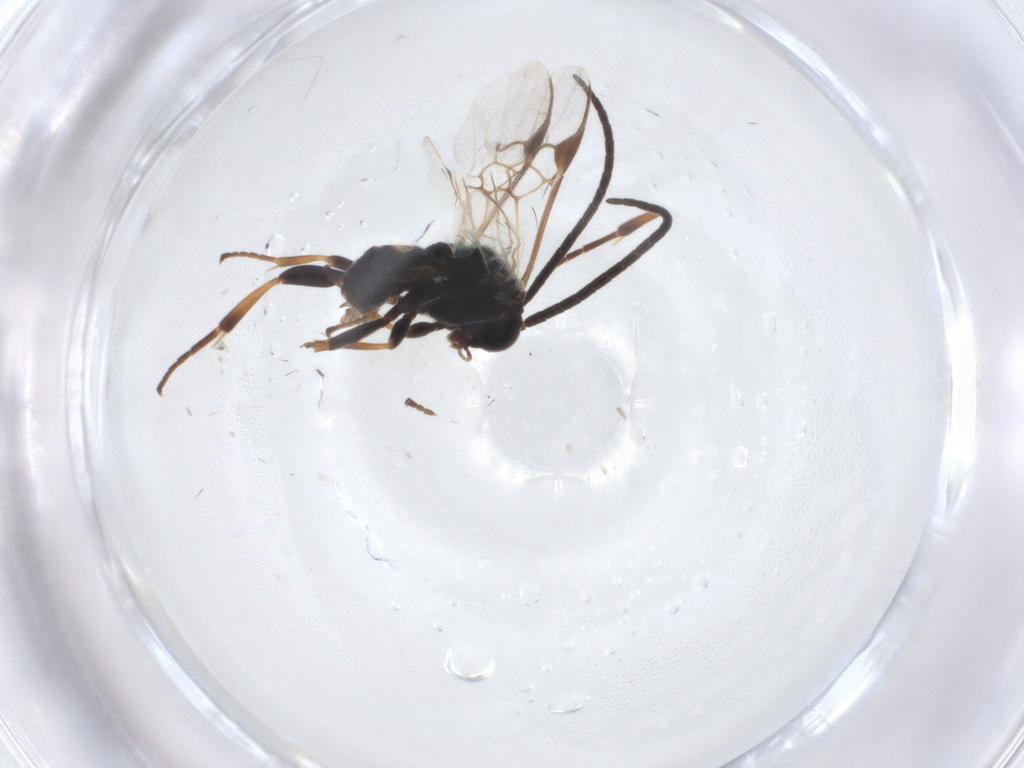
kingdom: Animalia
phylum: Arthropoda
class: Insecta
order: Hymenoptera
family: Braconidae
